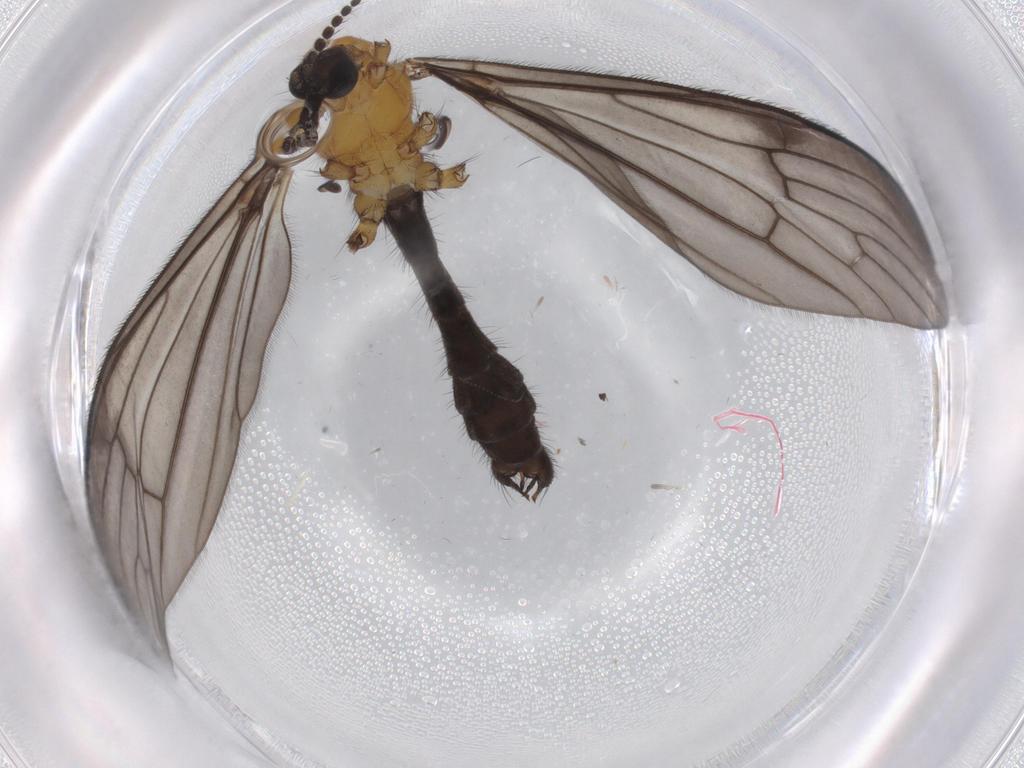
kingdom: Animalia
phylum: Arthropoda
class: Insecta
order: Diptera
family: Limoniidae
